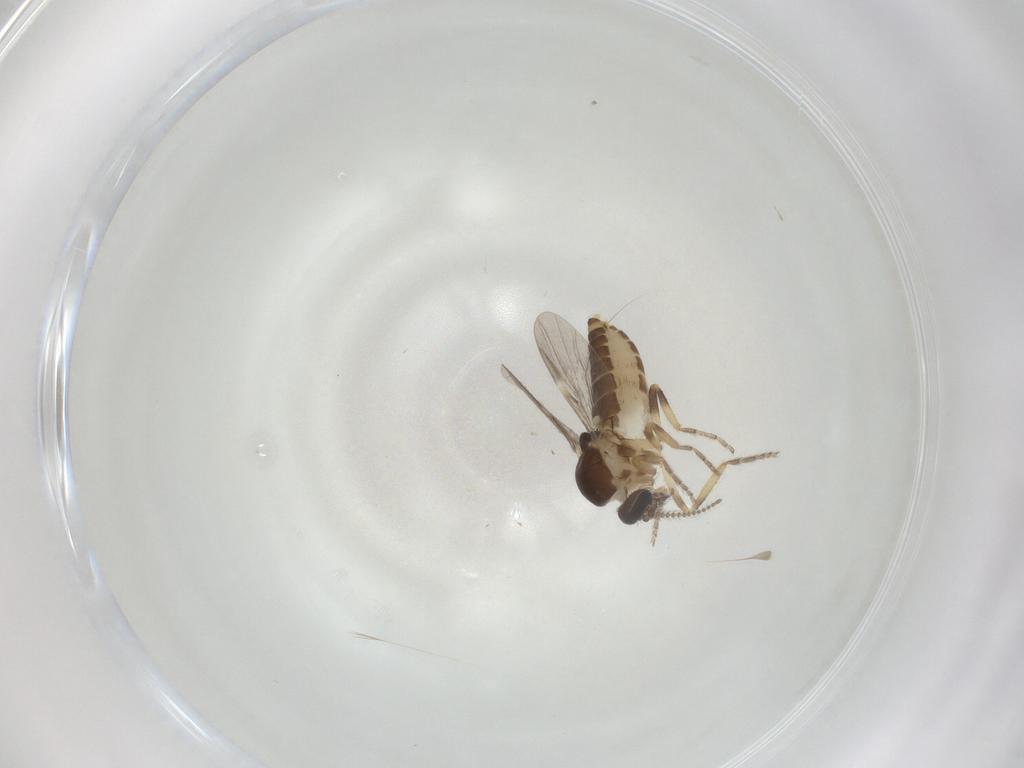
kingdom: Animalia
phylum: Arthropoda
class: Insecta
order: Diptera
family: Ceratopogonidae
